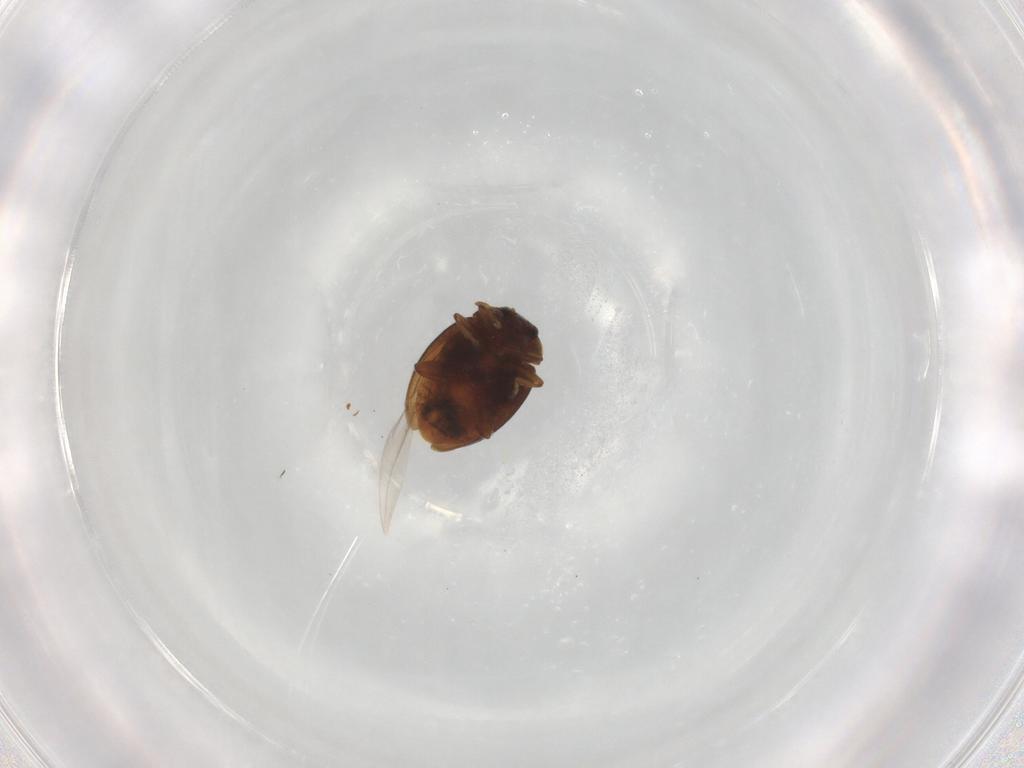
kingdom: Animalia
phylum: Arthropoda
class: Insecta
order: Coleoptera
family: Coccinellidae
